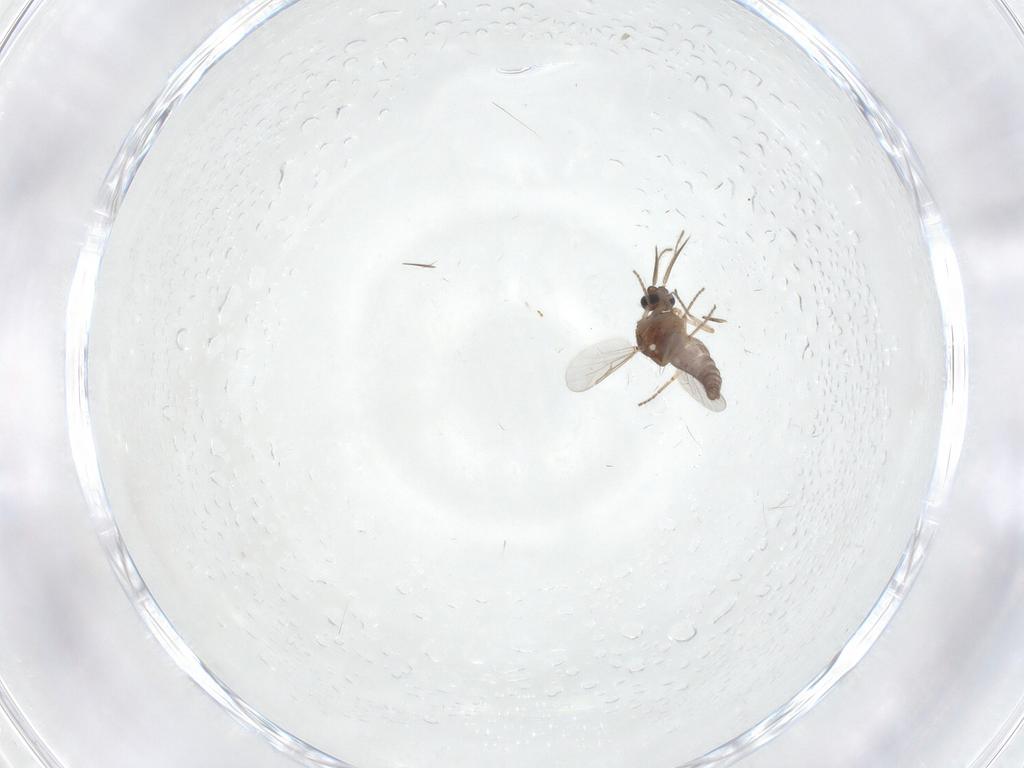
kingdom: Animalia
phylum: Arthropoda
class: Insecta
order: Diptera
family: Ceratopogonidae
